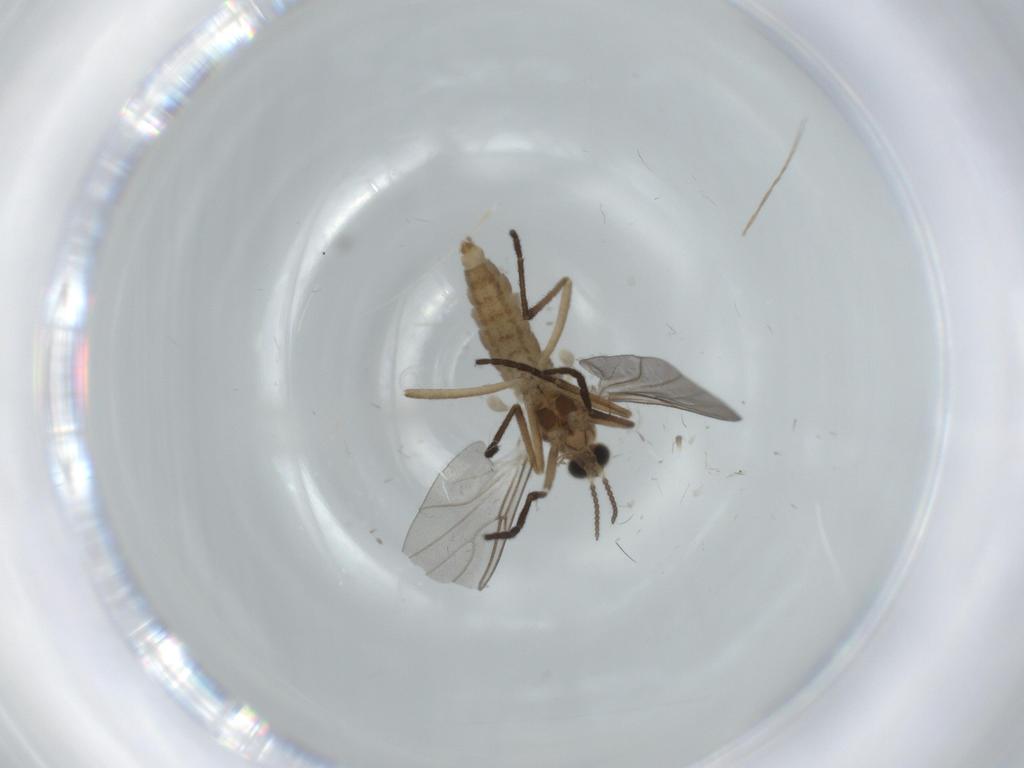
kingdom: Animalia
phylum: Arthropoda
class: Insecta
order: Diptera
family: Cecidomyiidae
